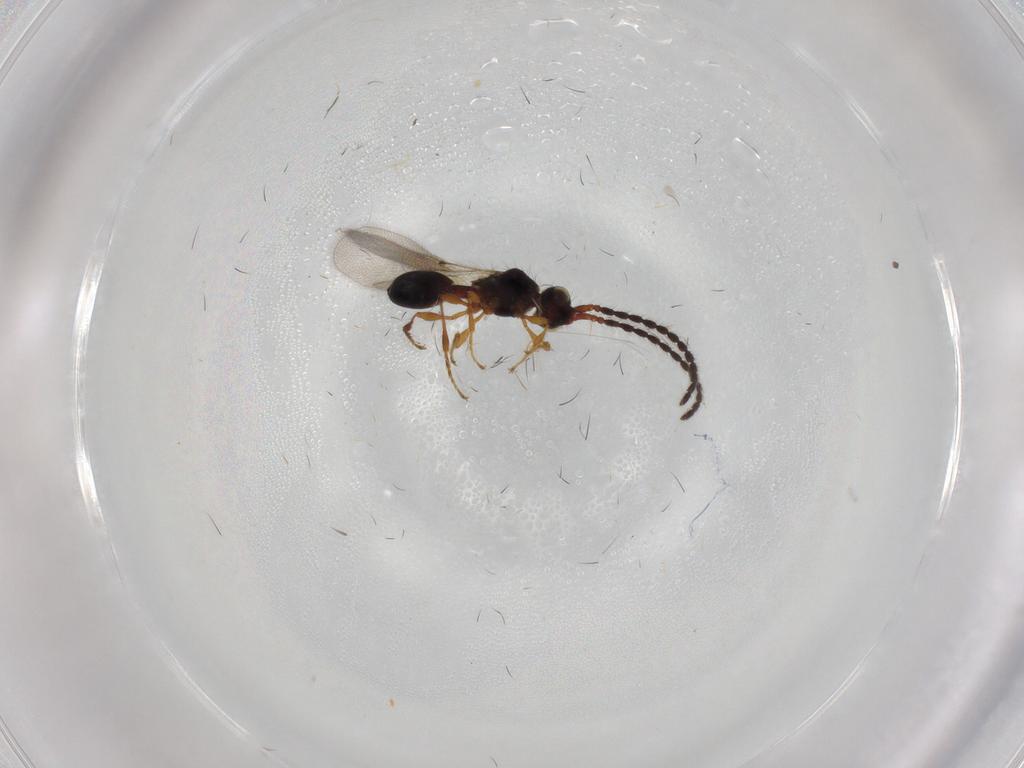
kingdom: Animalia
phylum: Arthropoda
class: Insecta
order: Hymenoptera
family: Diapriidae
